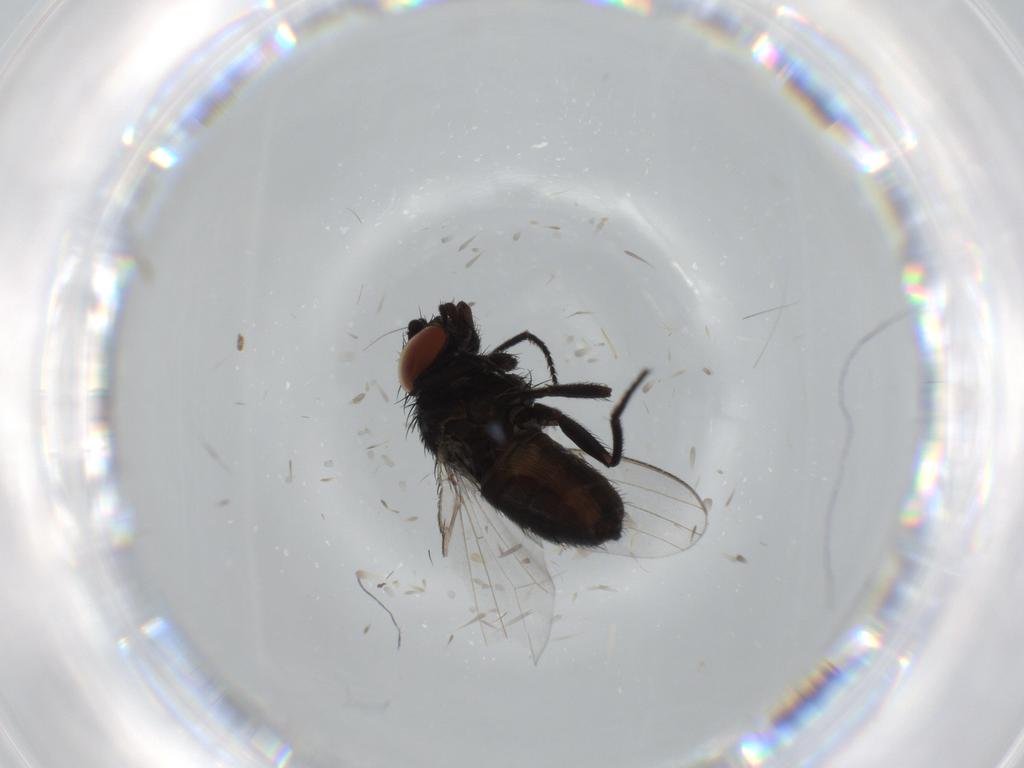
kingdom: Animalia
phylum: Arthropoda
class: Insecta
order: Diptera
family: Milichiidae
